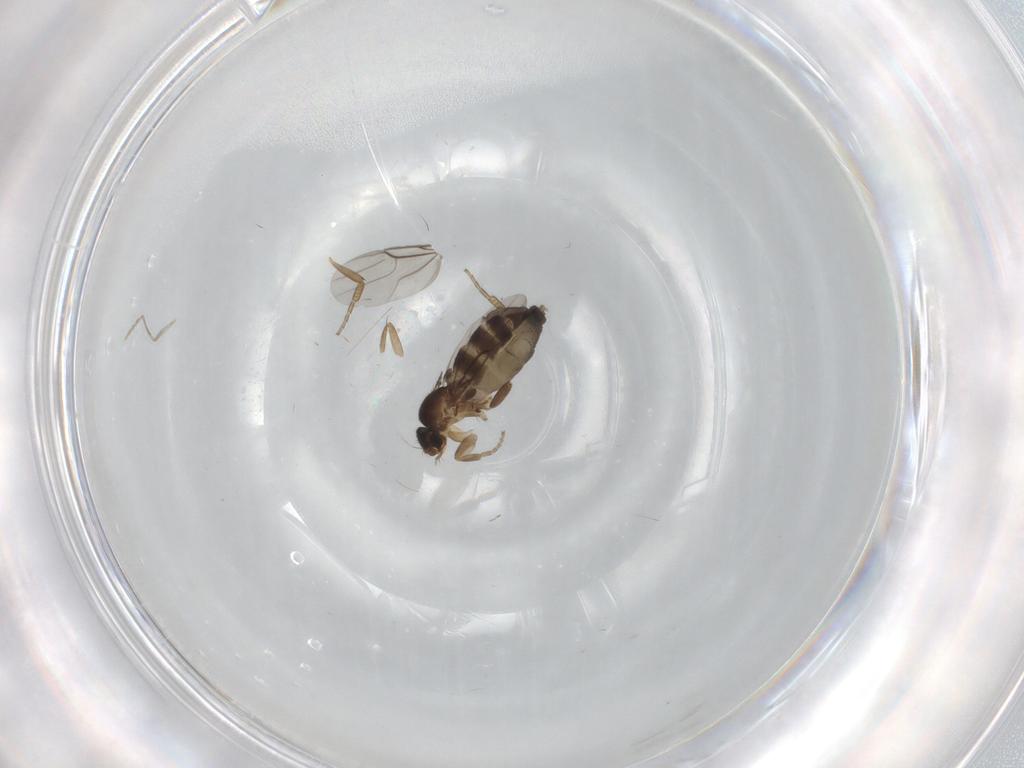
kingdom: Animalia
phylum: Arthropoda
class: Insecta
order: Diptera
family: Phoridae
